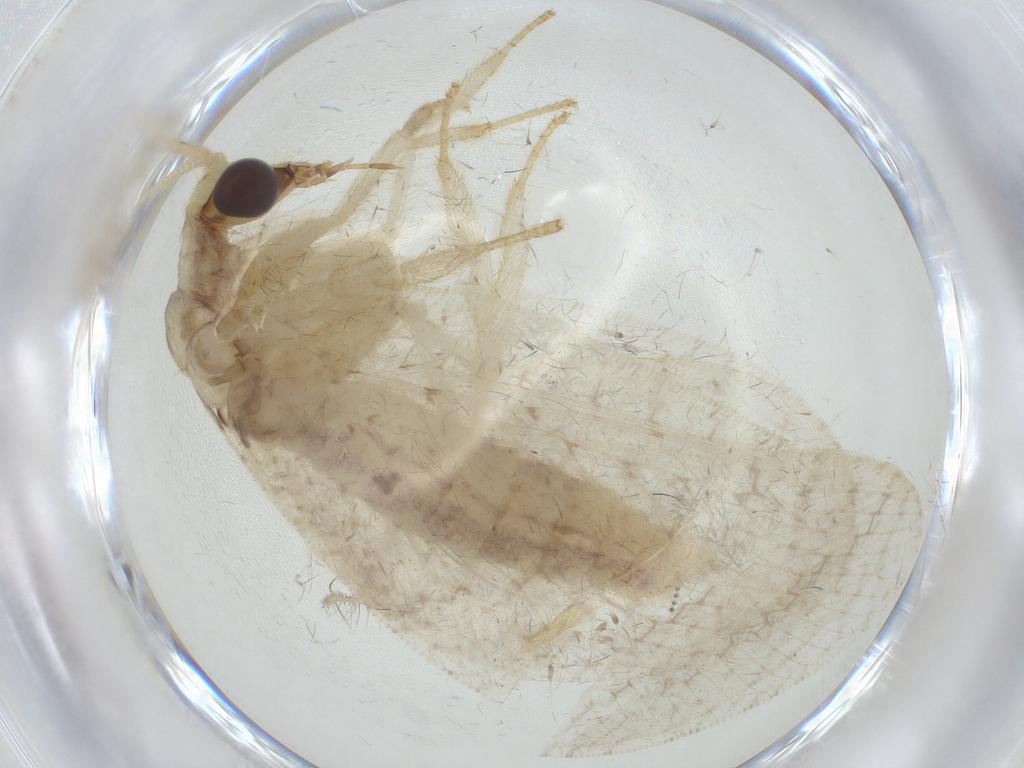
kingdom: Animalia
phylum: Arthropoda
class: Insecta
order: Neuroptera
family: Hemerobiidae
